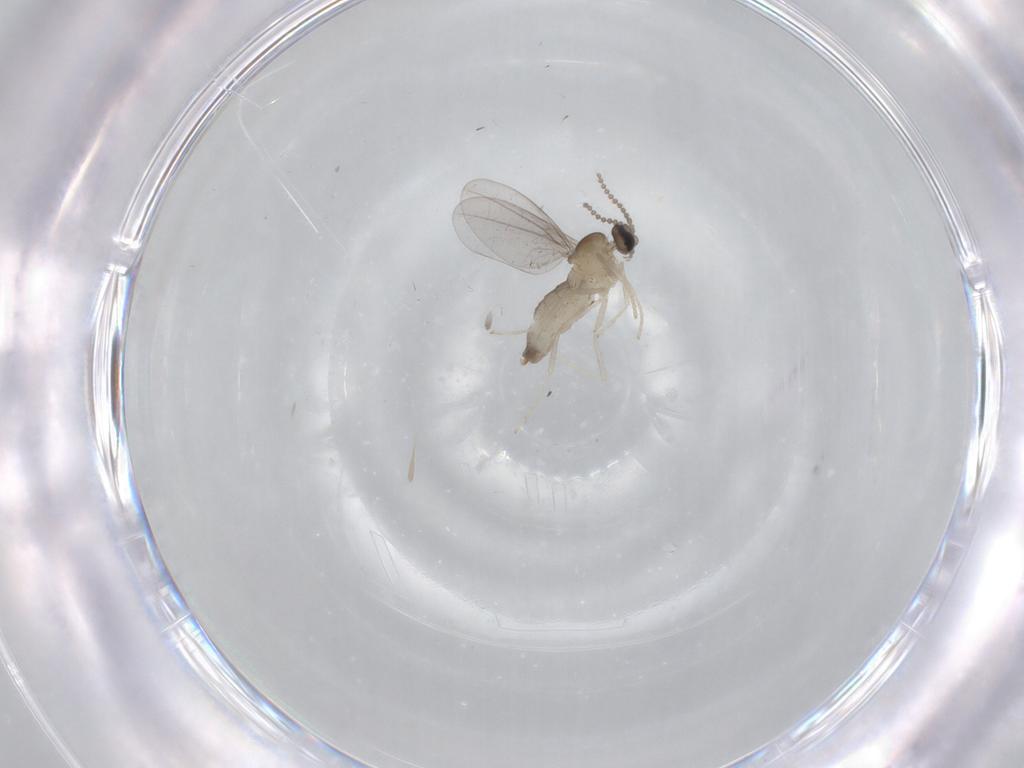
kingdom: Animalia
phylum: Arthropoda
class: Insecta
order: Diptera
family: Cecidomyiidae
